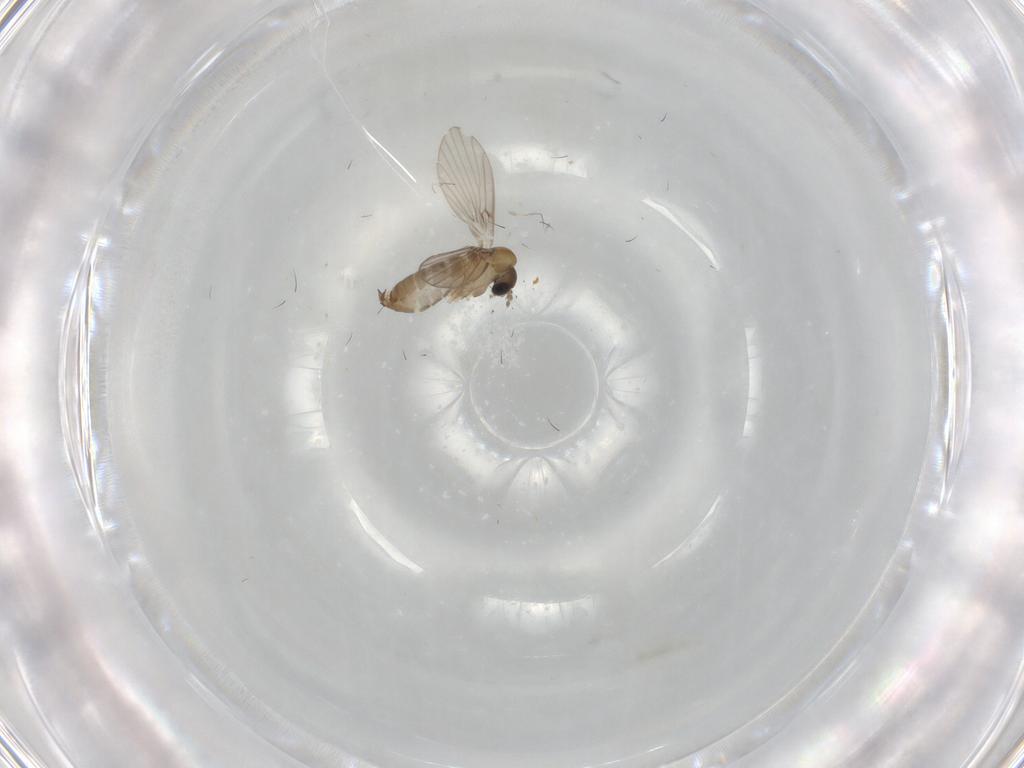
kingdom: Animalia
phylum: Arthropoda
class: Insecta
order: Diptera
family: Psychodidae
